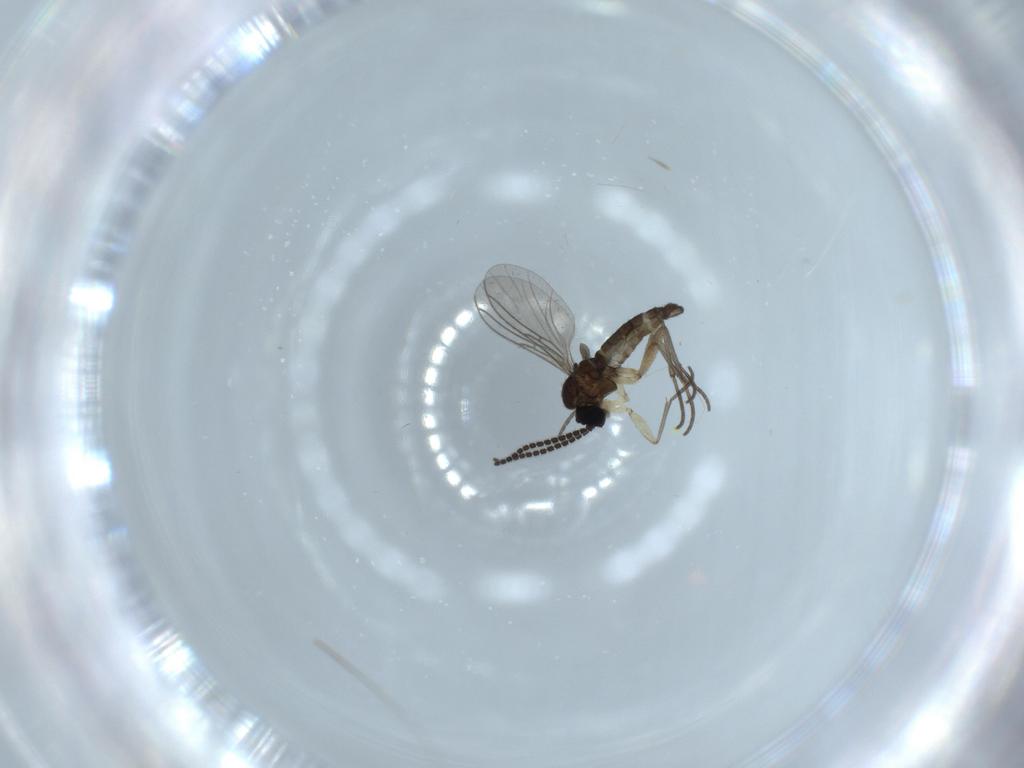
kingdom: Animalia
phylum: Arthropoda
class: Insecta
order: Diptera
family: Sciaridae
